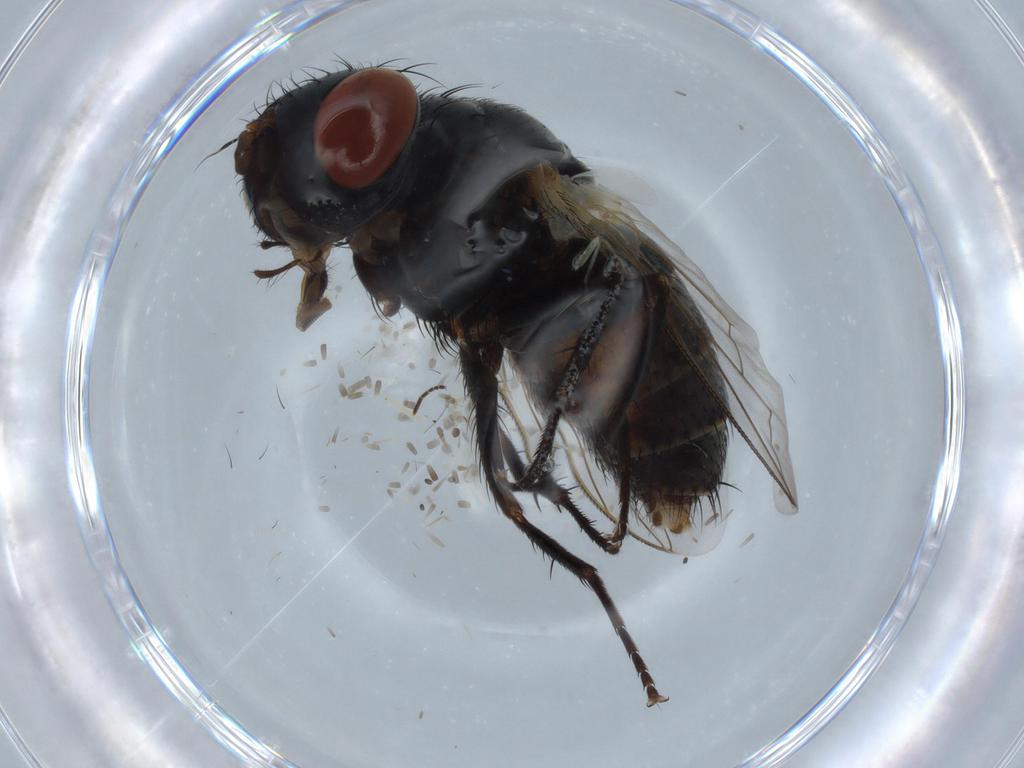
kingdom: Animalia
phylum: Arthropoda
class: Insecta
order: Diptera
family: Sarcophagidae
